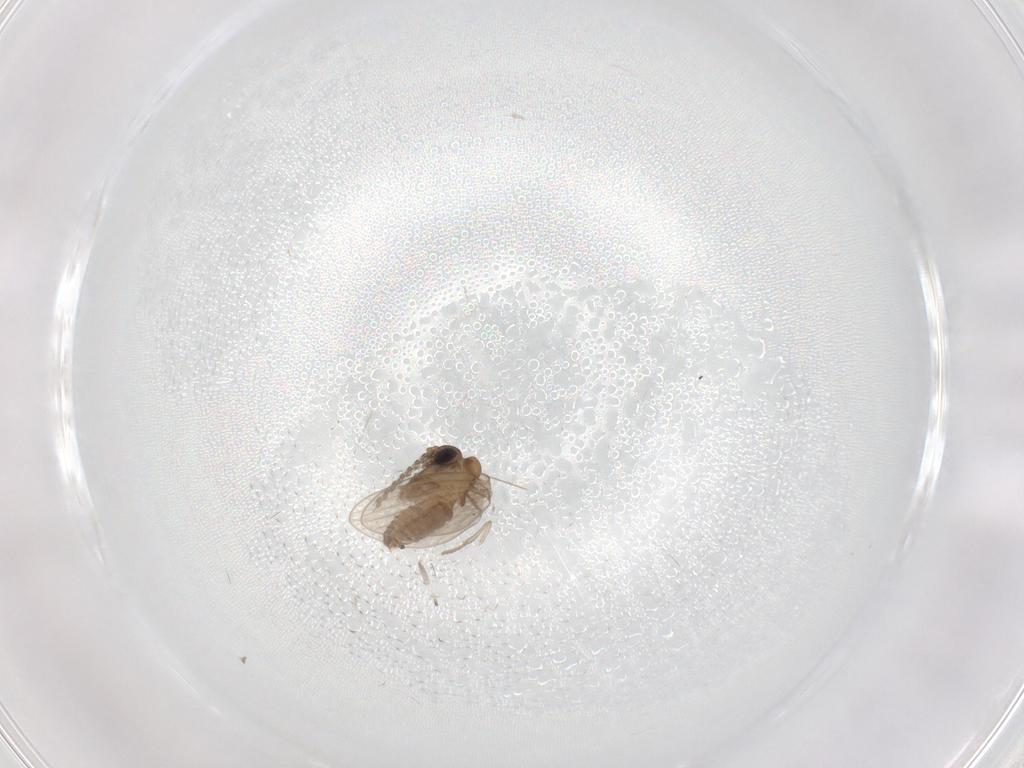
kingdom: Animalia
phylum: Arthropoda
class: Insecta
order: Diptera
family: Psychodidae
